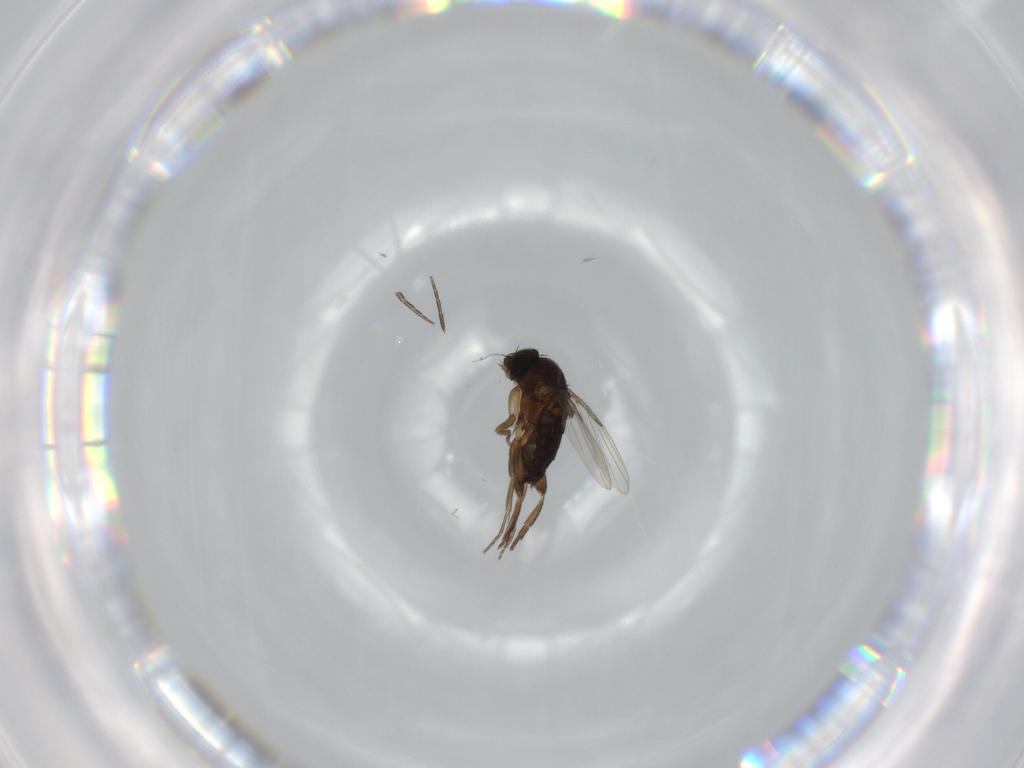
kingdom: Animalia
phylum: Arthropoda
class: Insecta
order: Diptera
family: Phoridae
